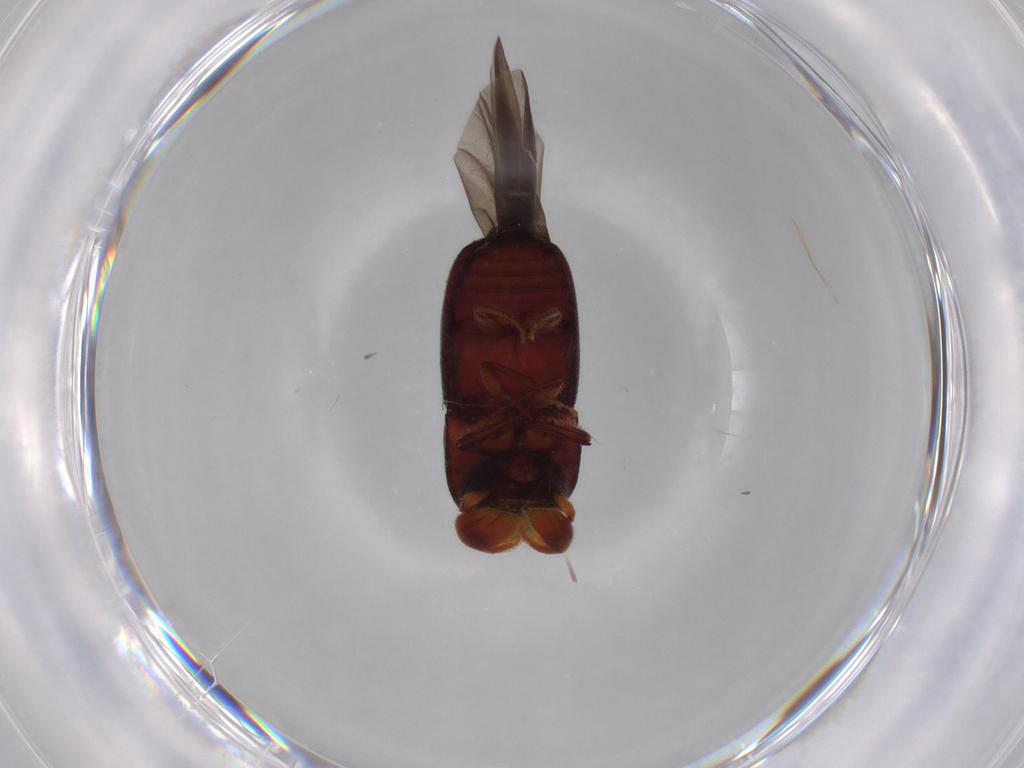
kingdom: Animalia
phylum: Arthropoda
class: Insecta
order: Coleoptera
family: Curculionidae
